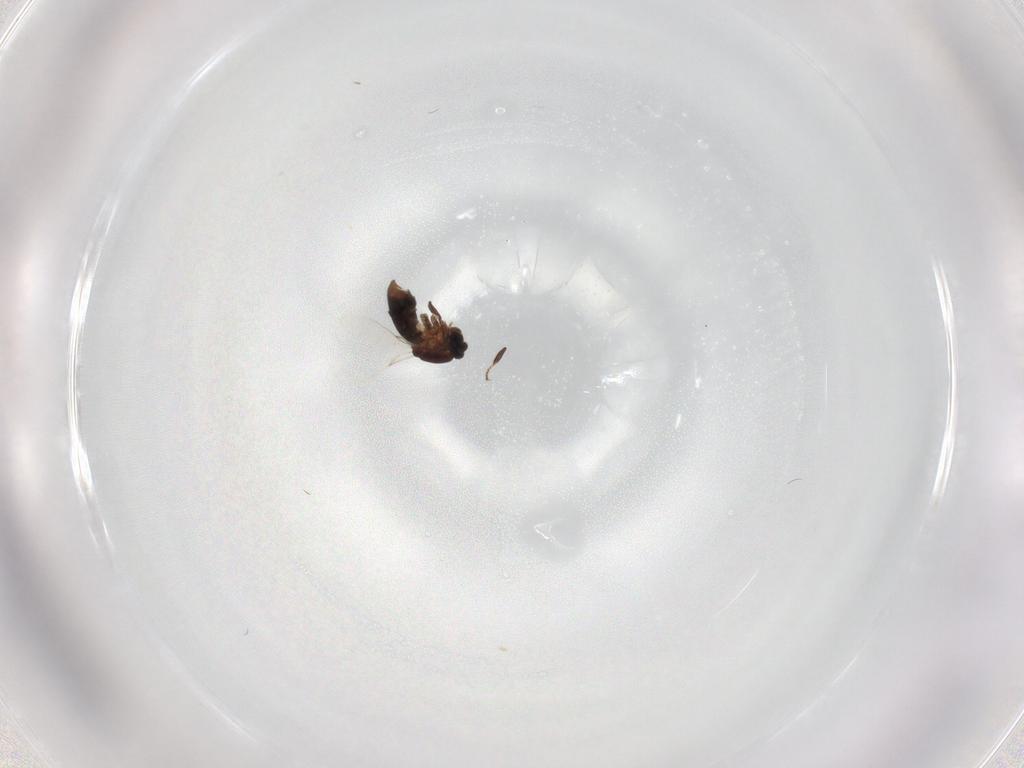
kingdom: Animalia
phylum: Arthropoda
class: Insecta
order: Diptera
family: Scatopsidae
